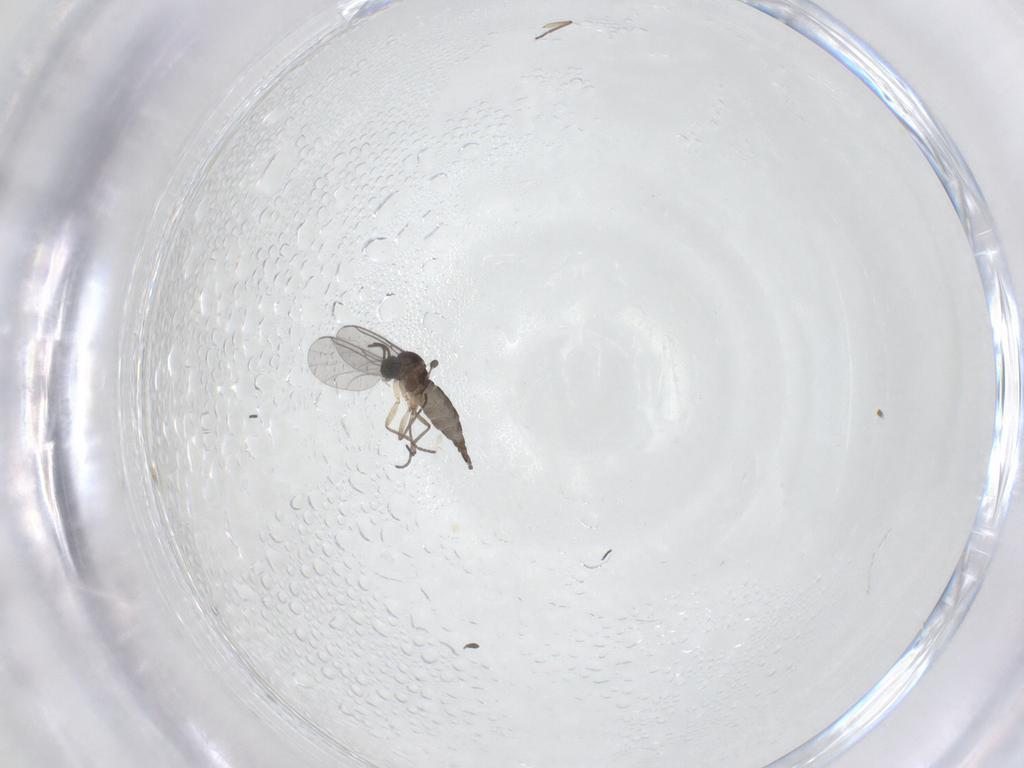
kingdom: Animalia
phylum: Arthropoda
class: Insecta
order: Diptera
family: Sciaridae
